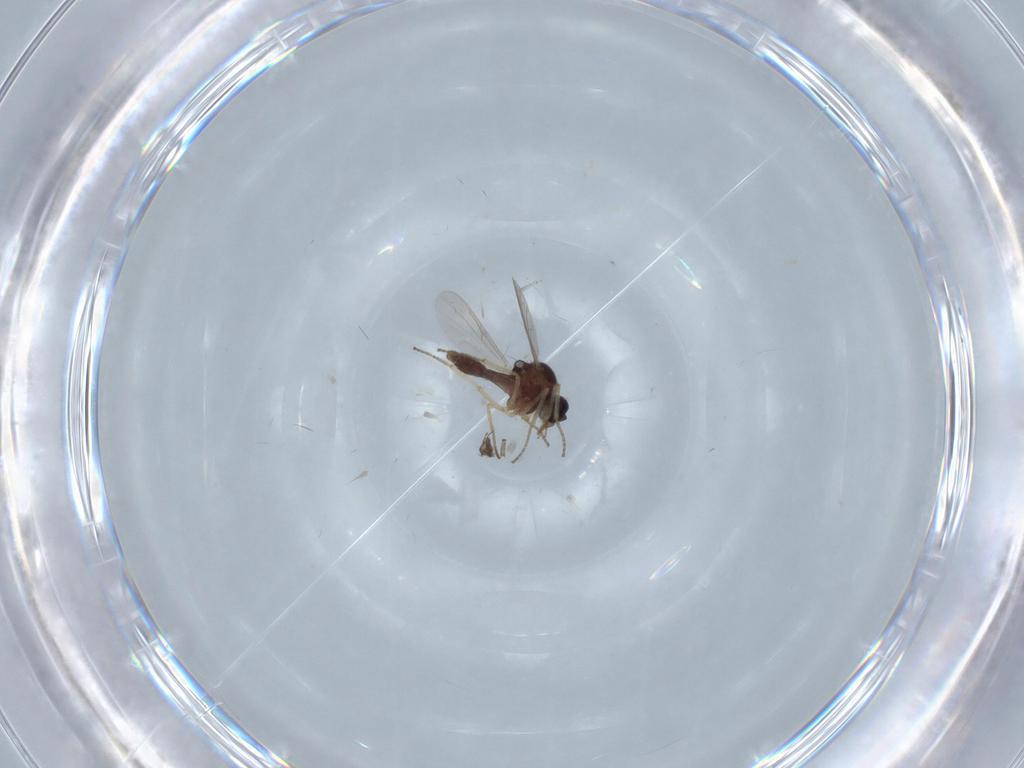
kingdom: Animalia
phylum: Arthropoda
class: Insecta
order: Diptera
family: Ceratopogonidae
